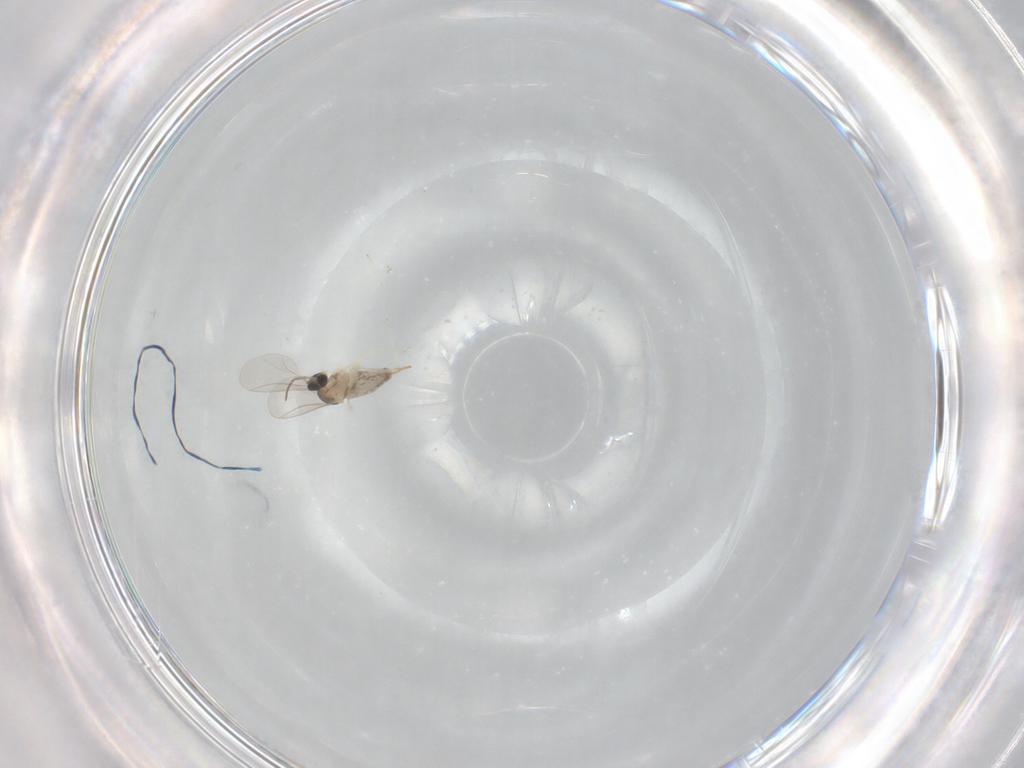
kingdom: Animalia
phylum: Arthropoda
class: Insecta
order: Diptera
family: Cecidomyiidae
